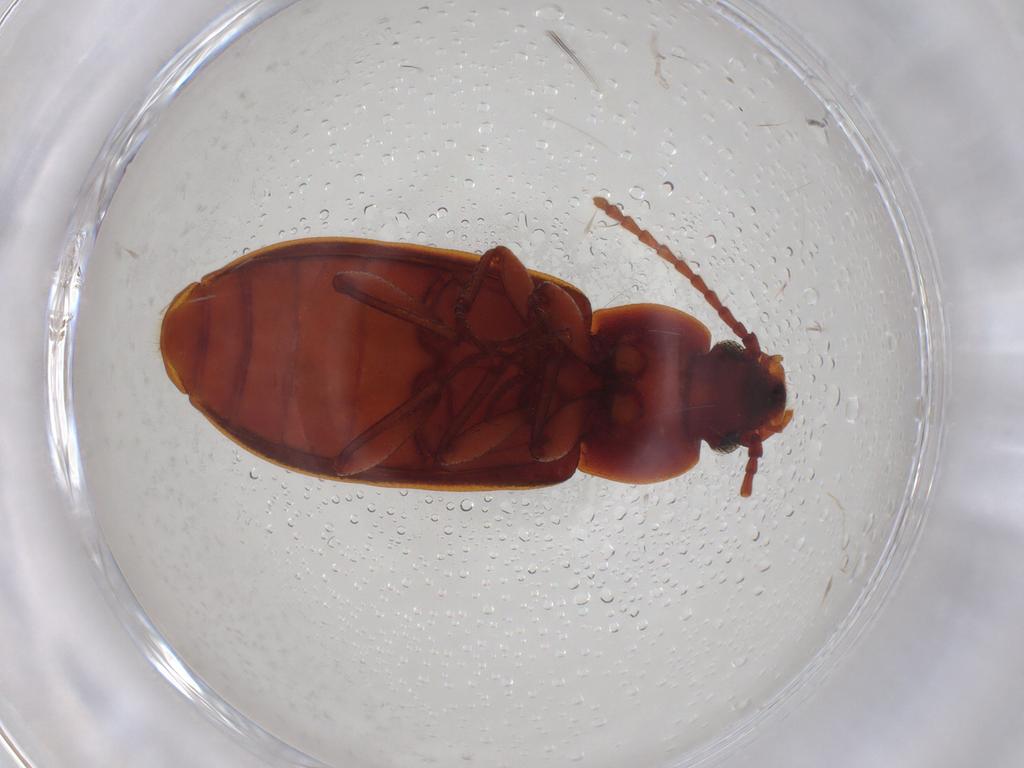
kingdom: Animalia
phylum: Arthropoda
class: Insecta
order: Coleoptera
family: Tenebrionidae
